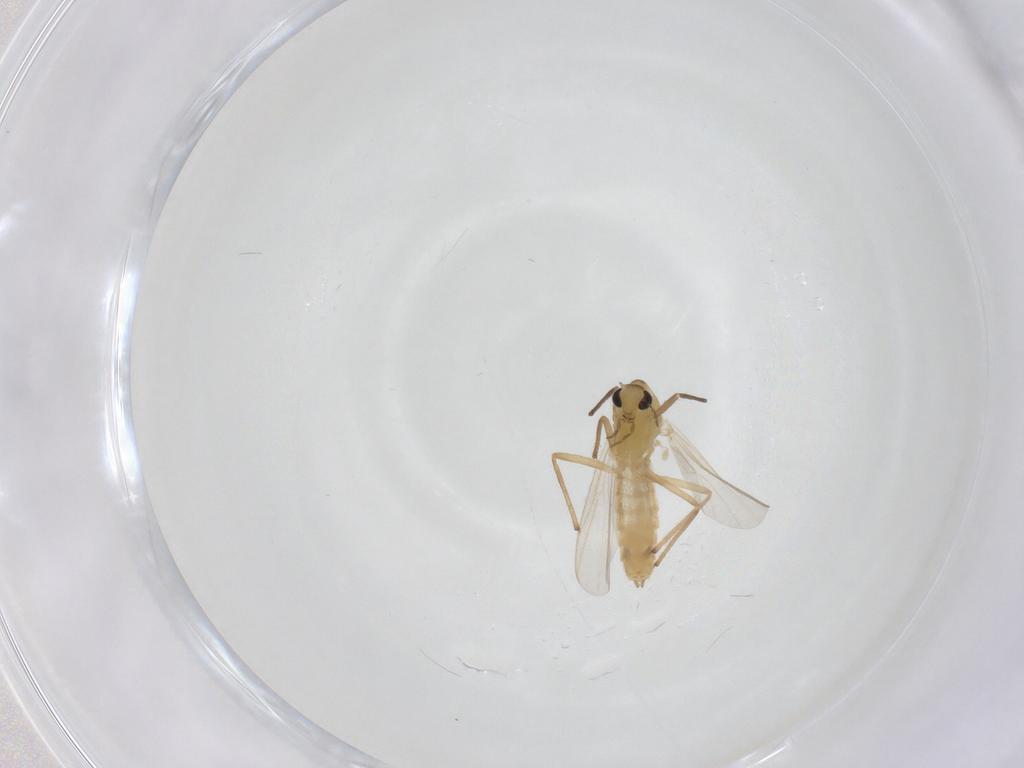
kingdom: Animalia
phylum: Arthropoda
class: Insecta
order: Diptera
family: Chironomidae
